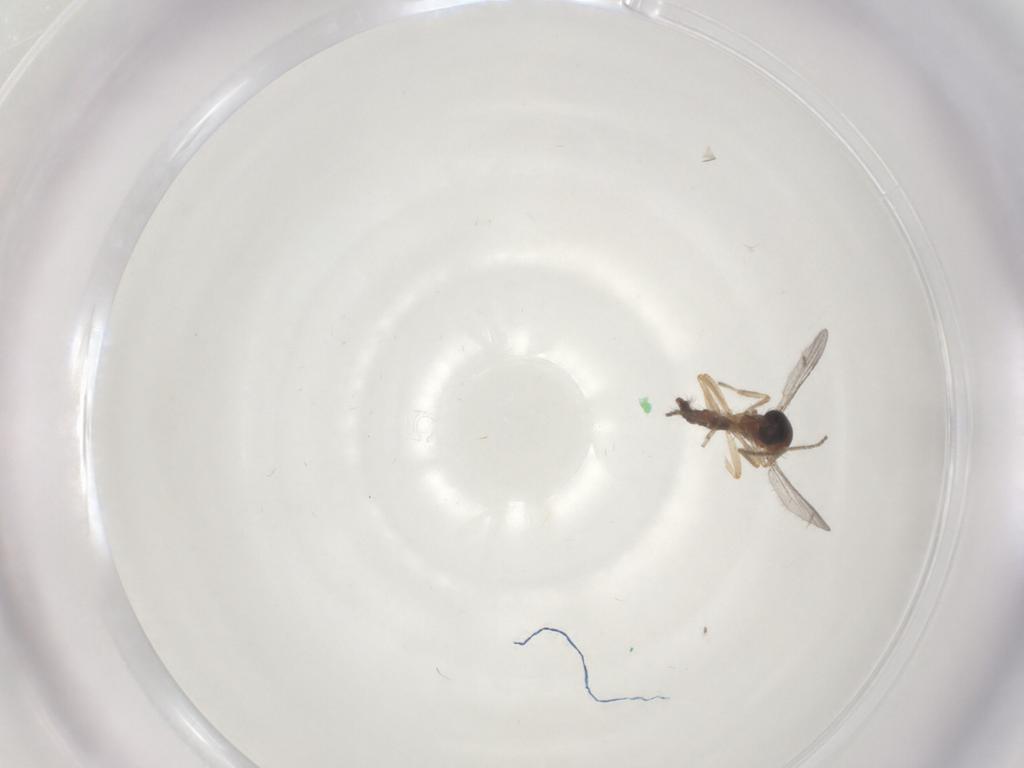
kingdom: Animalia
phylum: Arthropoda
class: Insecta
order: Diptera
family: Ceratopogonidae
